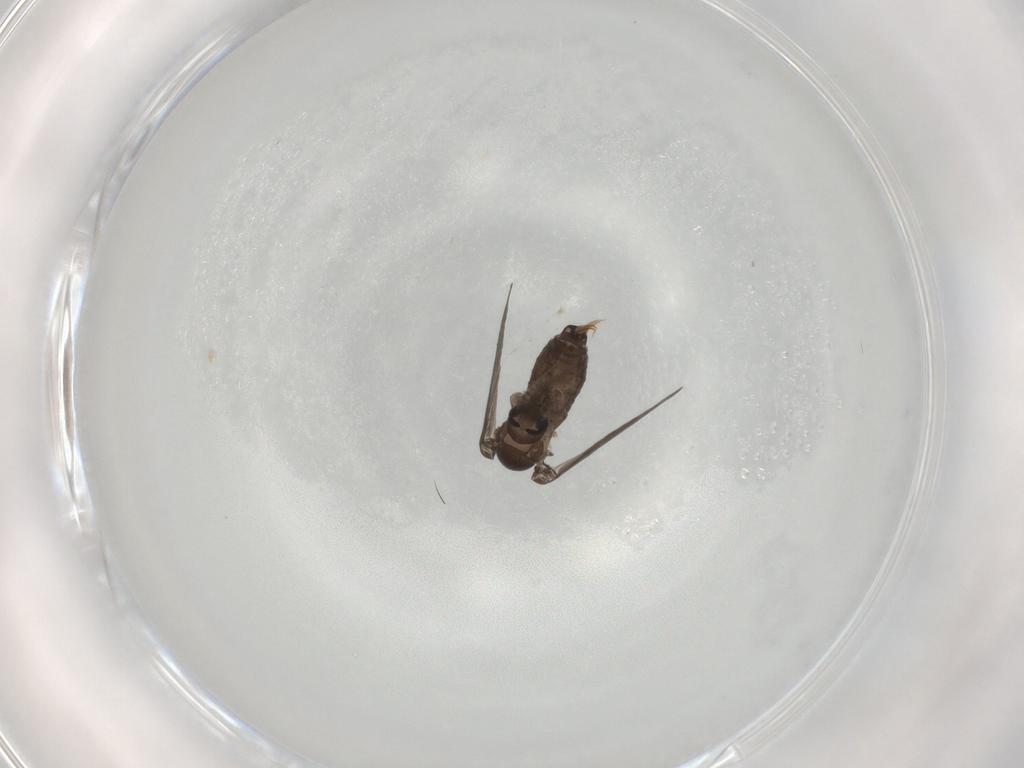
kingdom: Animalia
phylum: Arthropoda
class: Insecta
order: Diptera
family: Psychodidae
